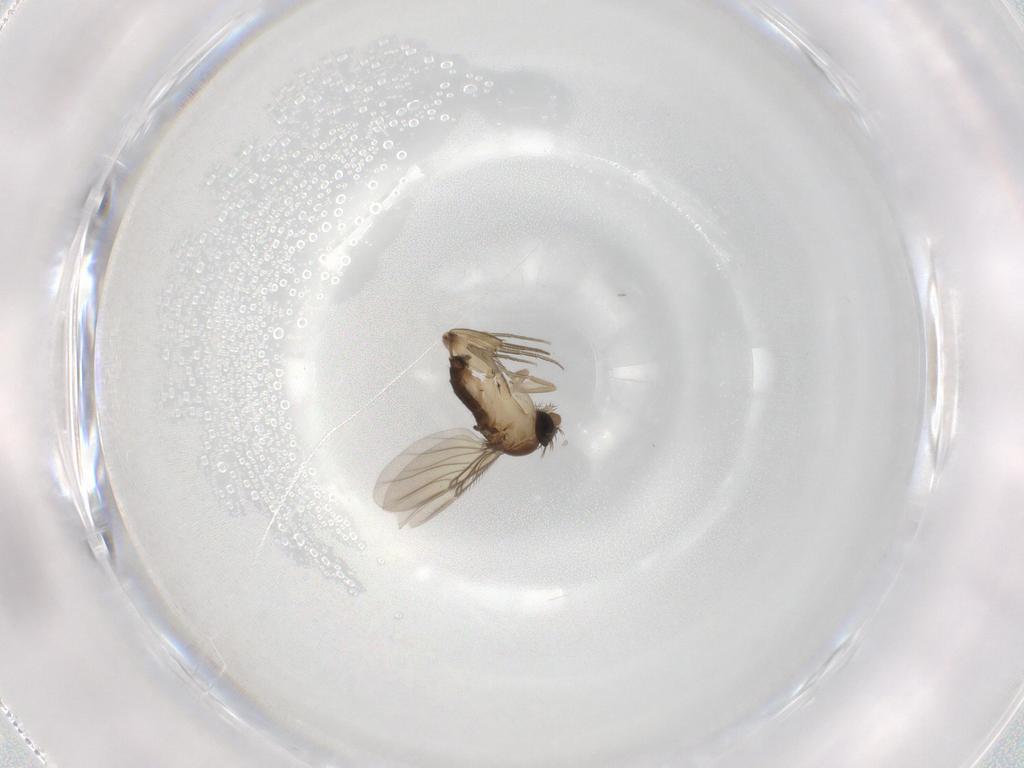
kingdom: Animalia
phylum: Arthropoda
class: Insecta
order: Diptera
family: Phoridae
